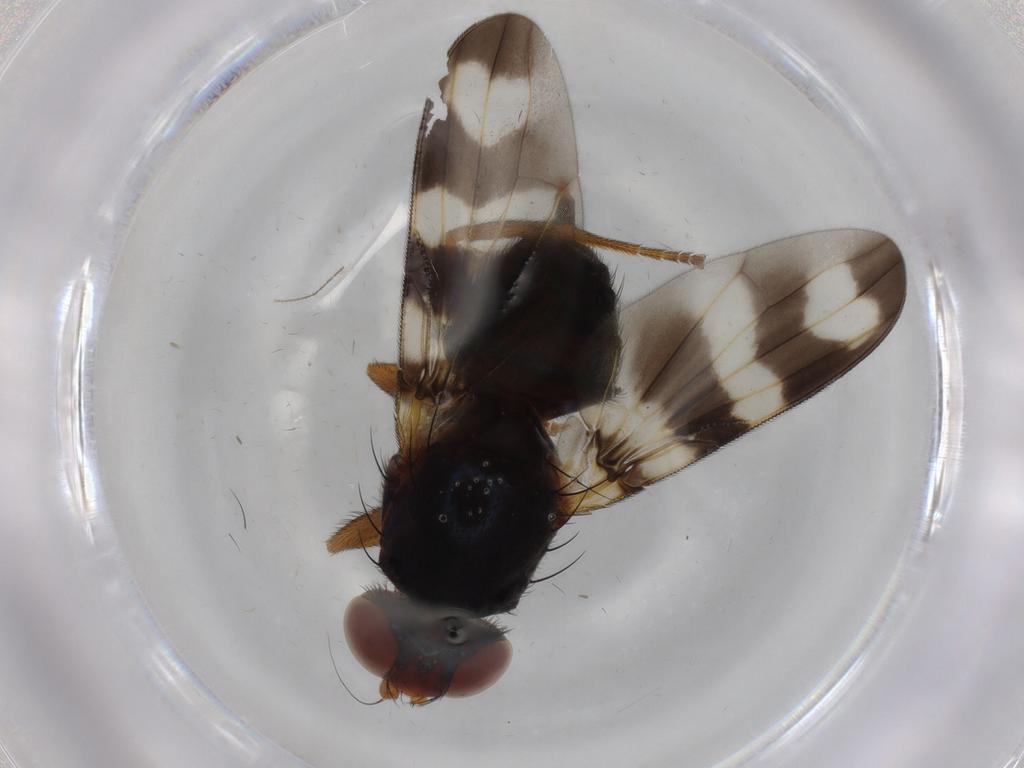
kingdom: Animalia
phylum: Arthropoda
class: Insecta
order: Diptera
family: Ulidiidae
